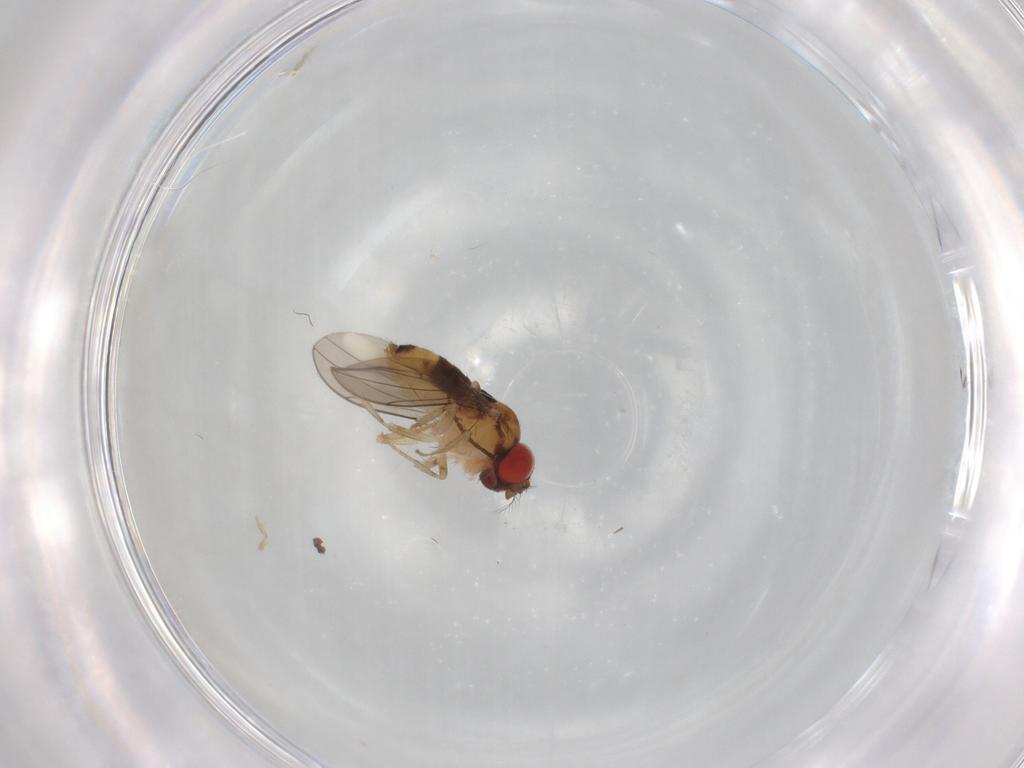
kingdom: Animalia
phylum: Arthropoda
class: Insecta
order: Diptera
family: Sciaridae
